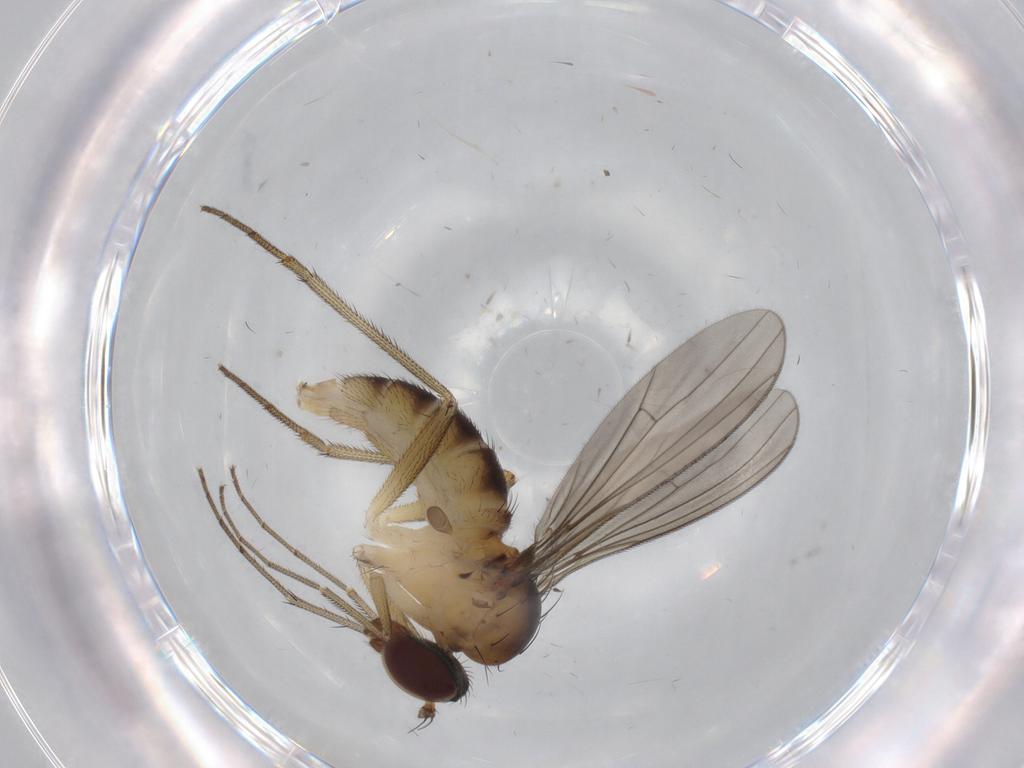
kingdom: Animalia
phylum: Arthropoda
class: Insecta
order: Diptera
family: Dolichopodidae
